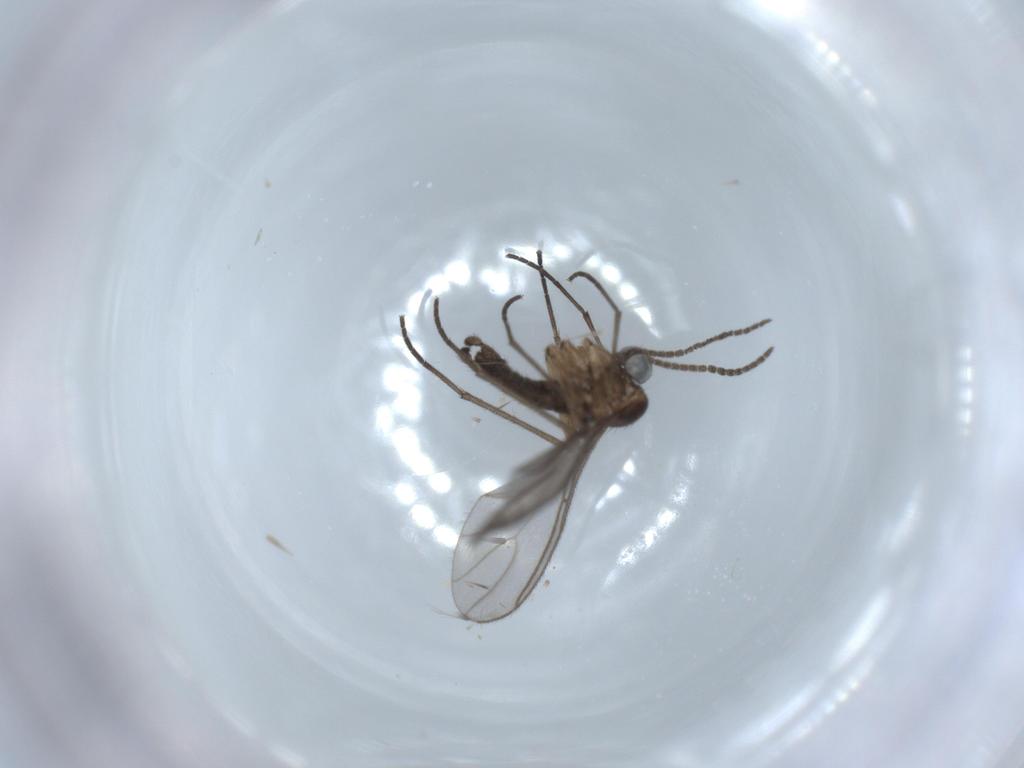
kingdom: Animalia
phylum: Arthropoda
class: Insecta
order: Diptera
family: Sciaridae
